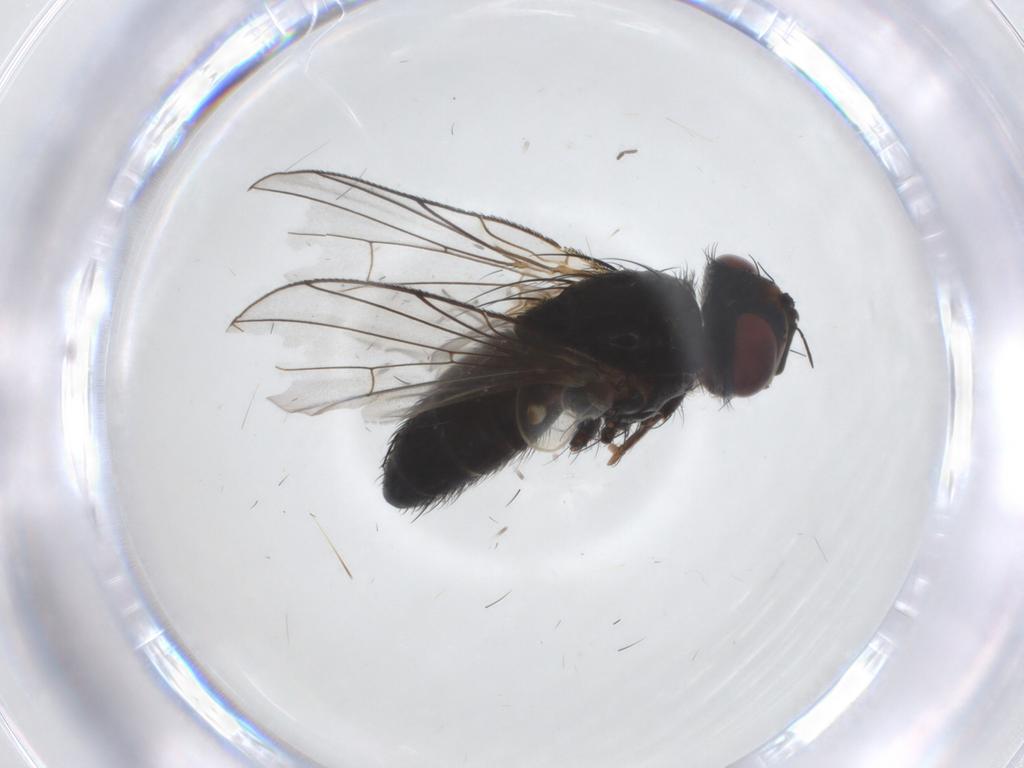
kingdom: Animalia
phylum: Arthropoda
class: Insecta
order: Diptera
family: Tachinidae
